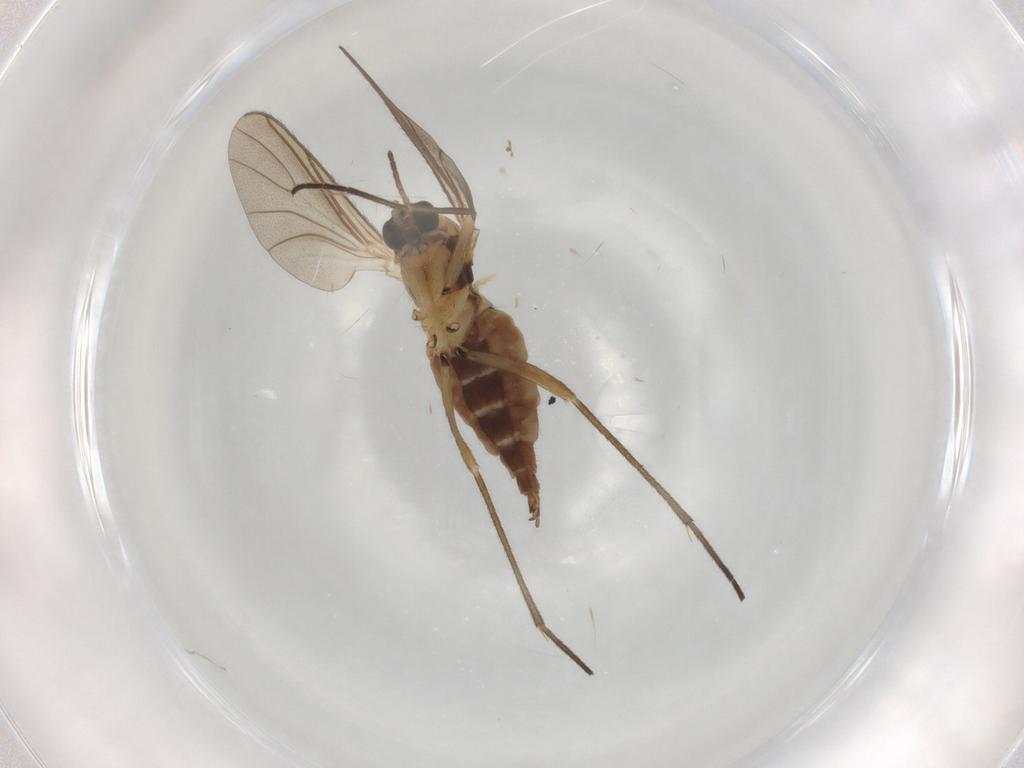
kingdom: Animalia
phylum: Arthropoda
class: Insecta
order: Diptera
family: Sciaridae
